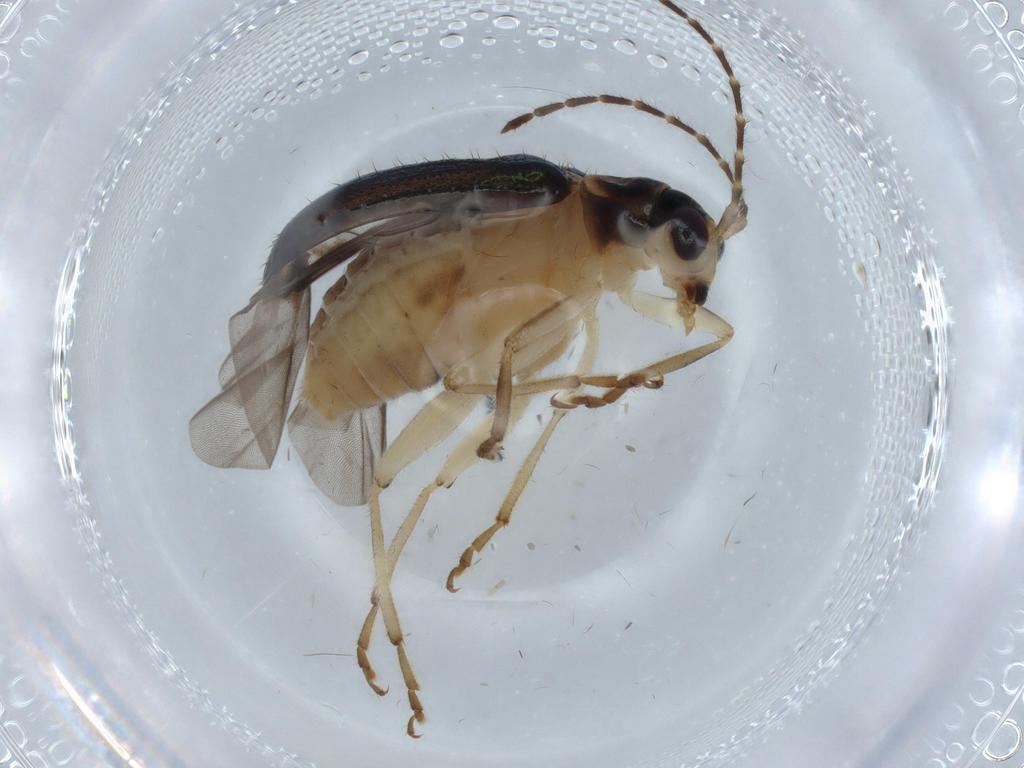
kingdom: Animalia
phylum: Arthropoda
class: Insecta
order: Coleoptera
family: Chrysomelidae
